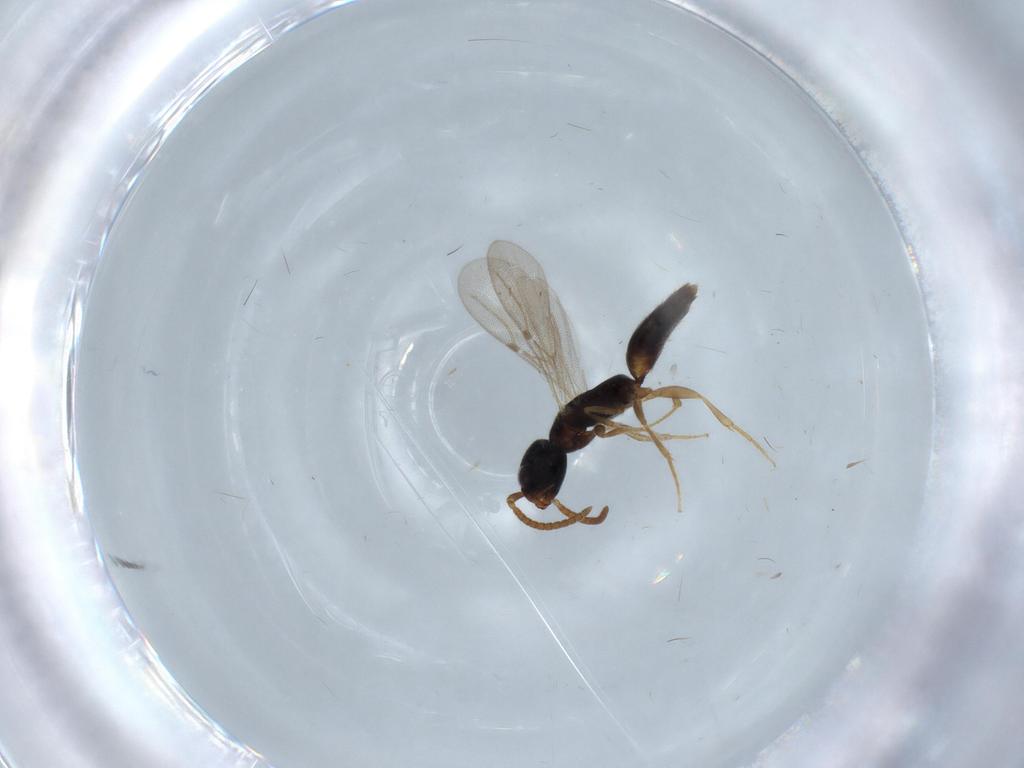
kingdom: Animalia
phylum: Arthropoda
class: Insecta
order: Hymenoptera
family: Bethylidae
